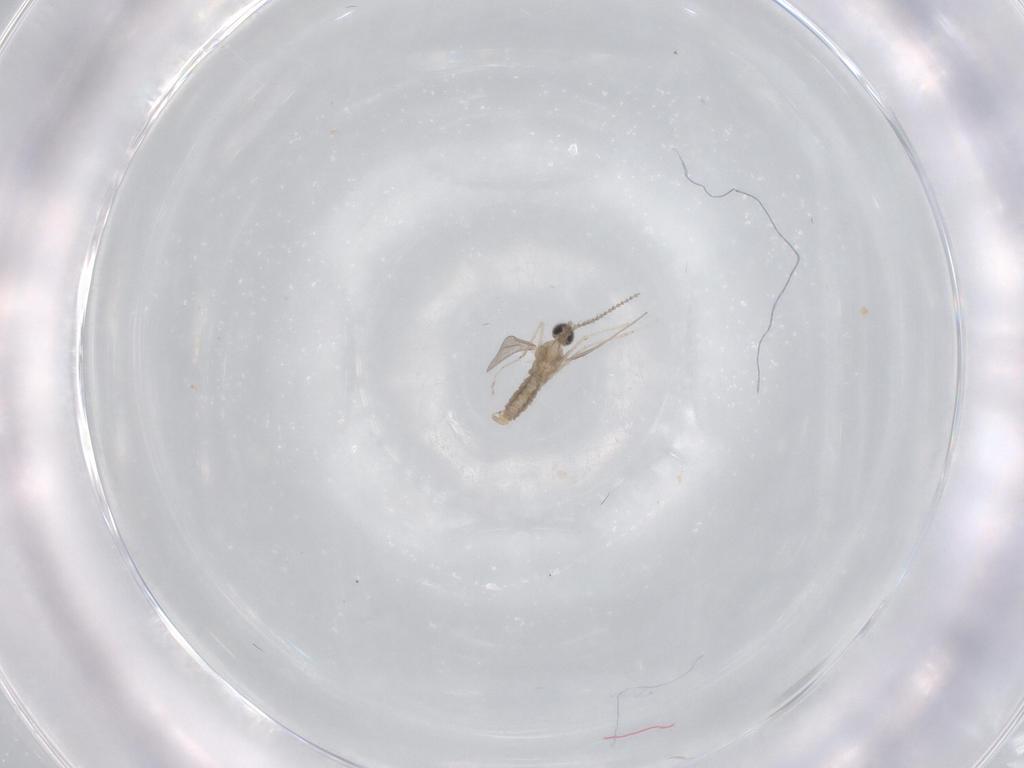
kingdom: Animalia
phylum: Arthropoda
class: Insecta
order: Diptera
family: Cecidomyiidae
